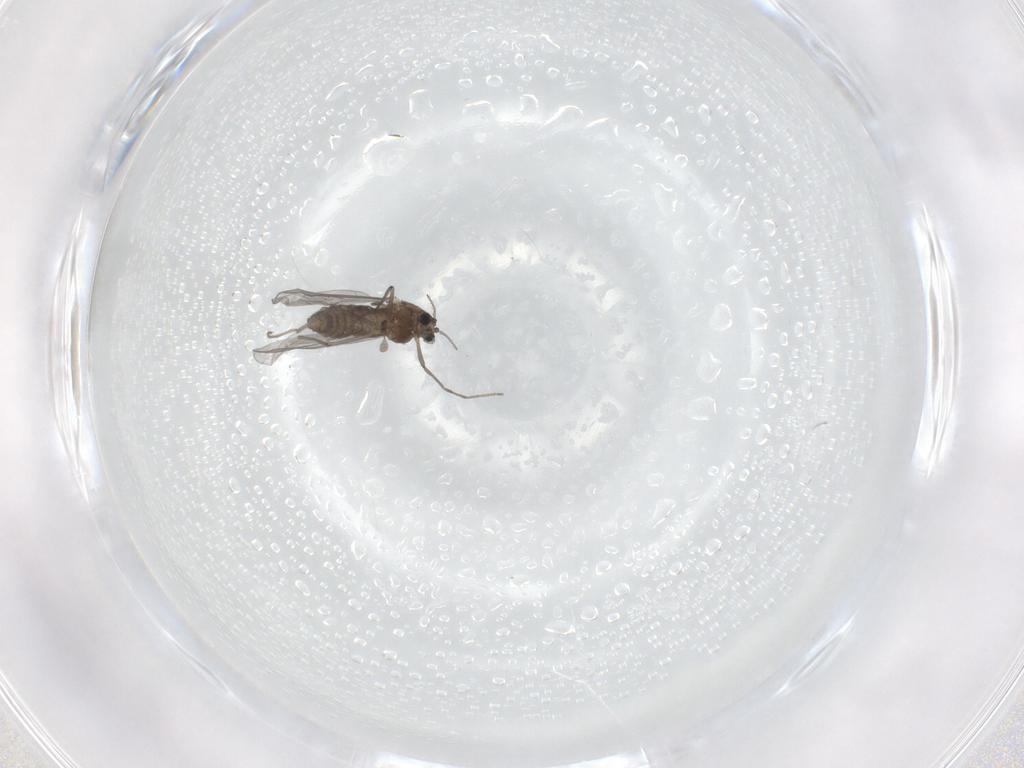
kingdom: Animalia
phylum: Arthropoda
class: Insecta
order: Diptera
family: Chironomidae
